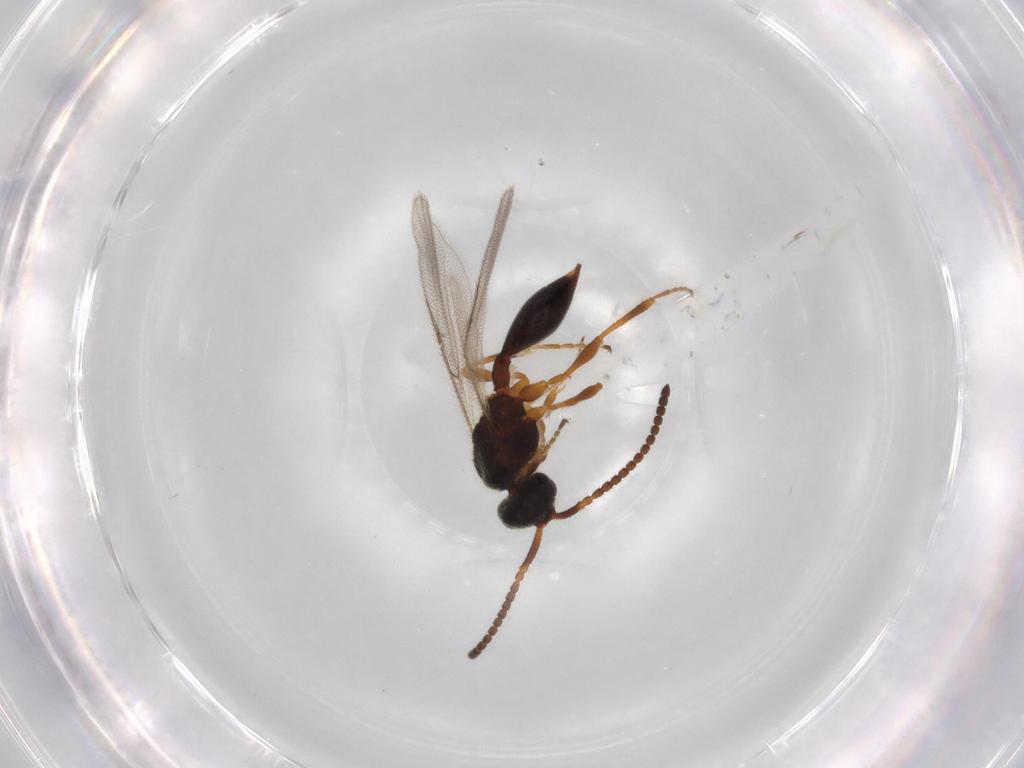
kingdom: Animalia
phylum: Arthropoda
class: Insecta
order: Hymenoptera
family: Diapriidae
